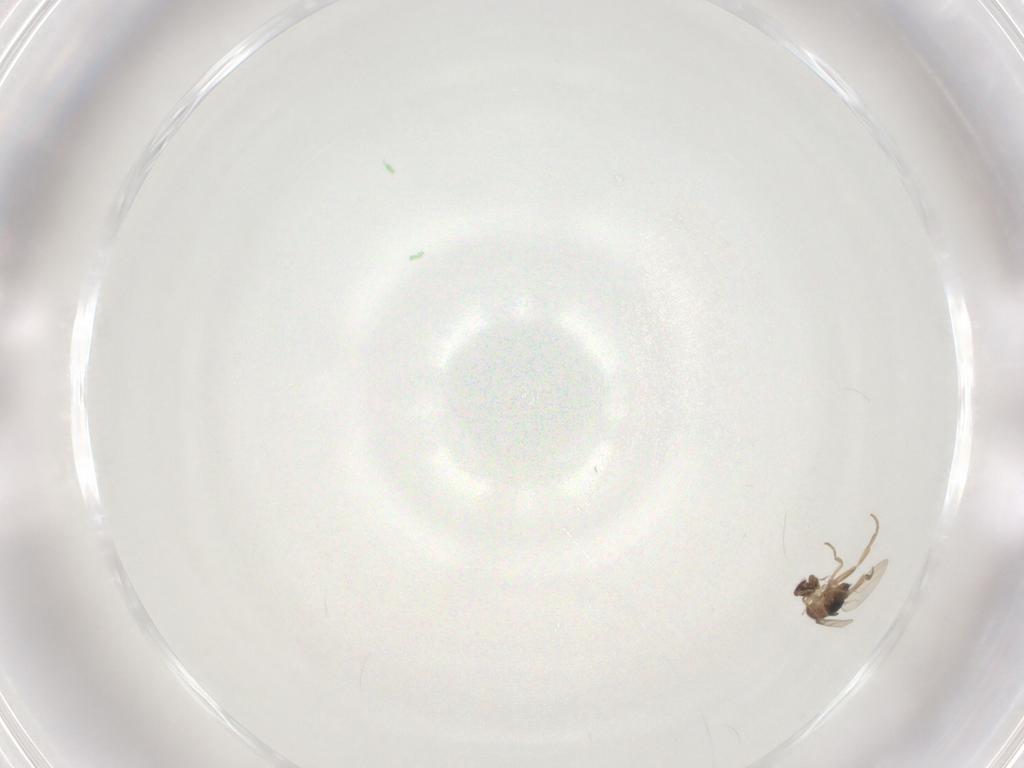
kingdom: Animalia
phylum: Arthropoda
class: Insecta
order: Diptera
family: Phoridae
